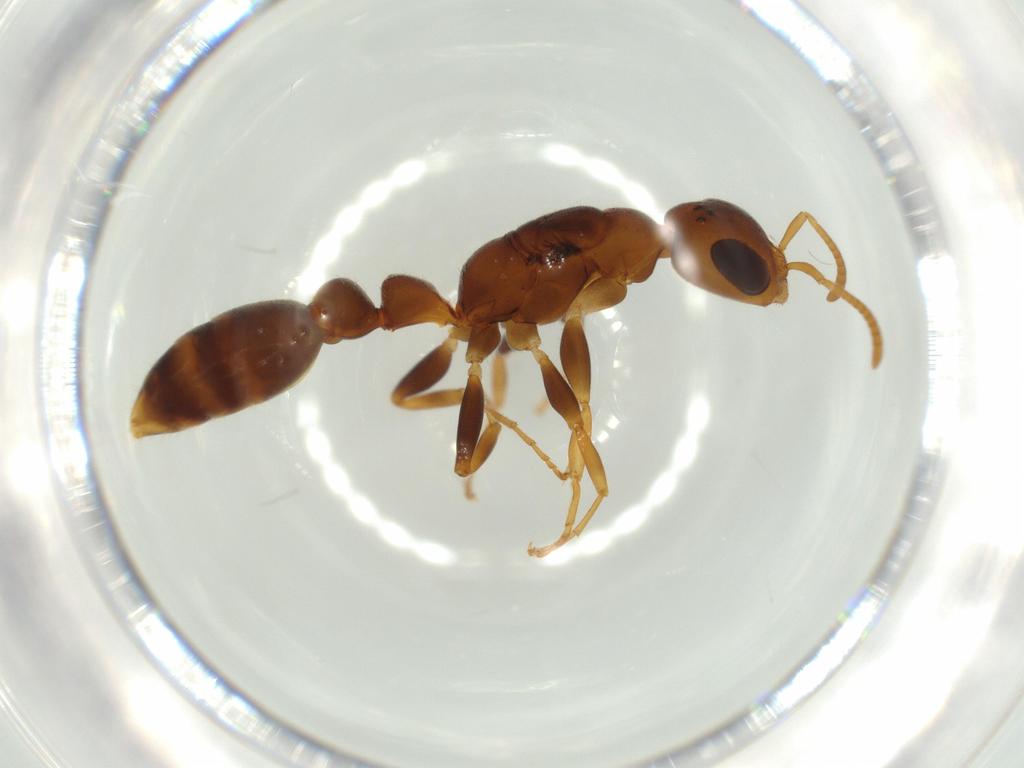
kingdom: Animalia
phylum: Arthropoda
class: Insecta
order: Hymenoptera
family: Formicidae
